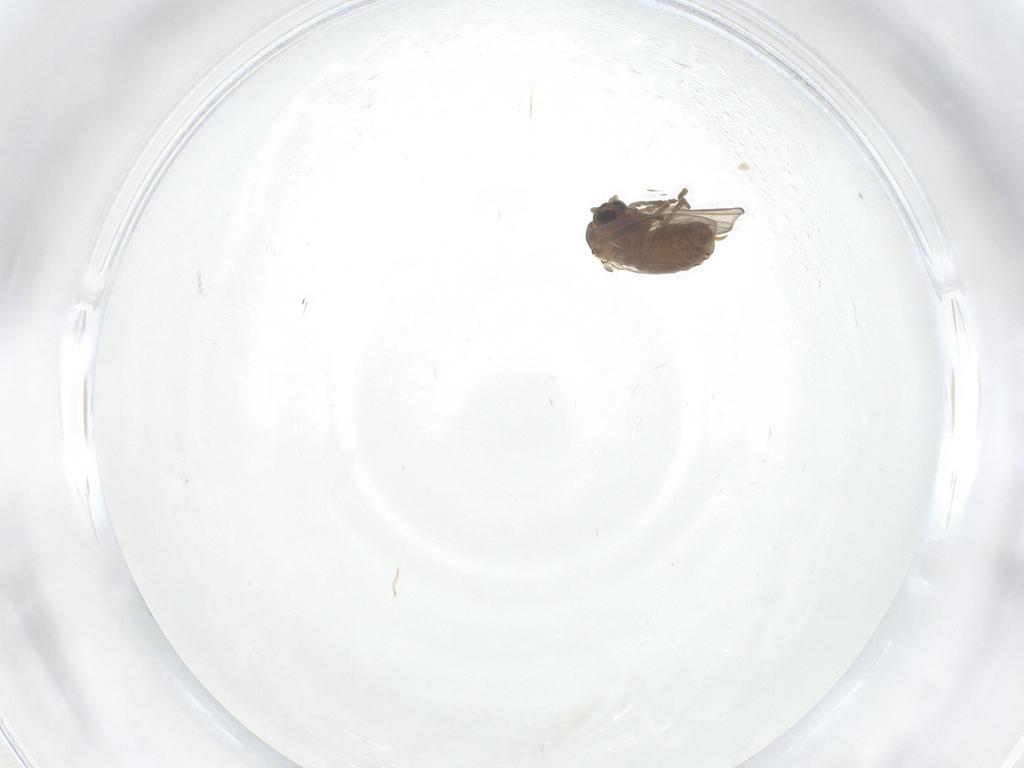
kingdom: Animalia
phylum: Arthropoda
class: Insecta
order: Diptera
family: Psychodidae
